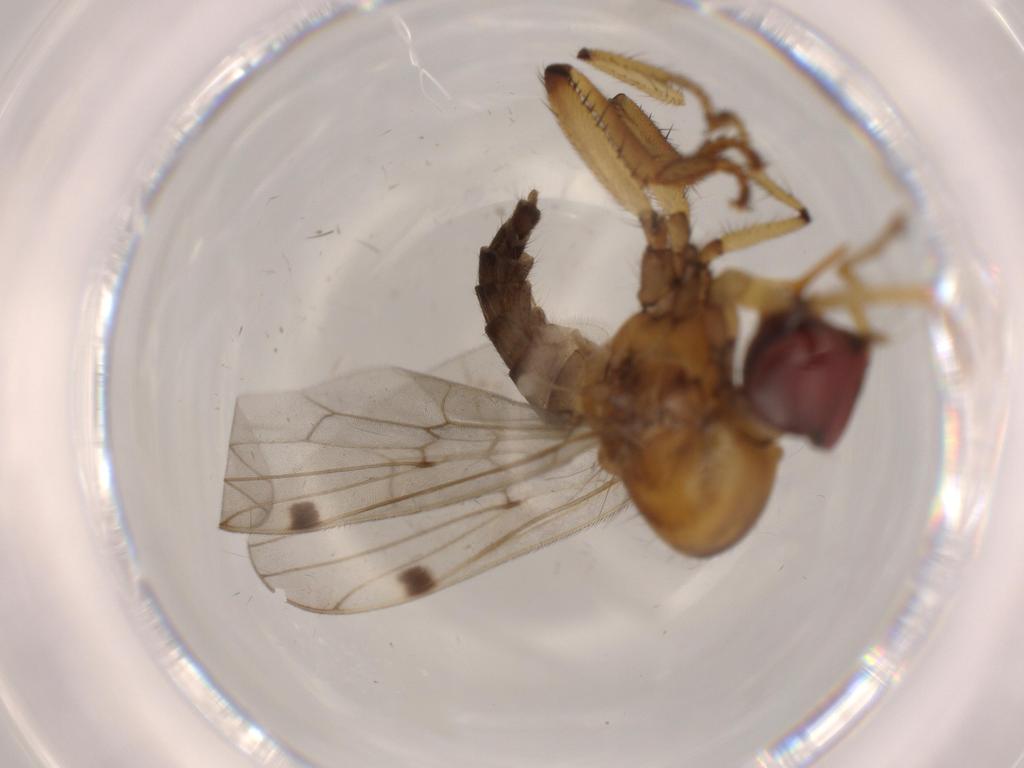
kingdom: Animalia
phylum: Arthropoda
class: Insecta
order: Diptera
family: Hybotidae
